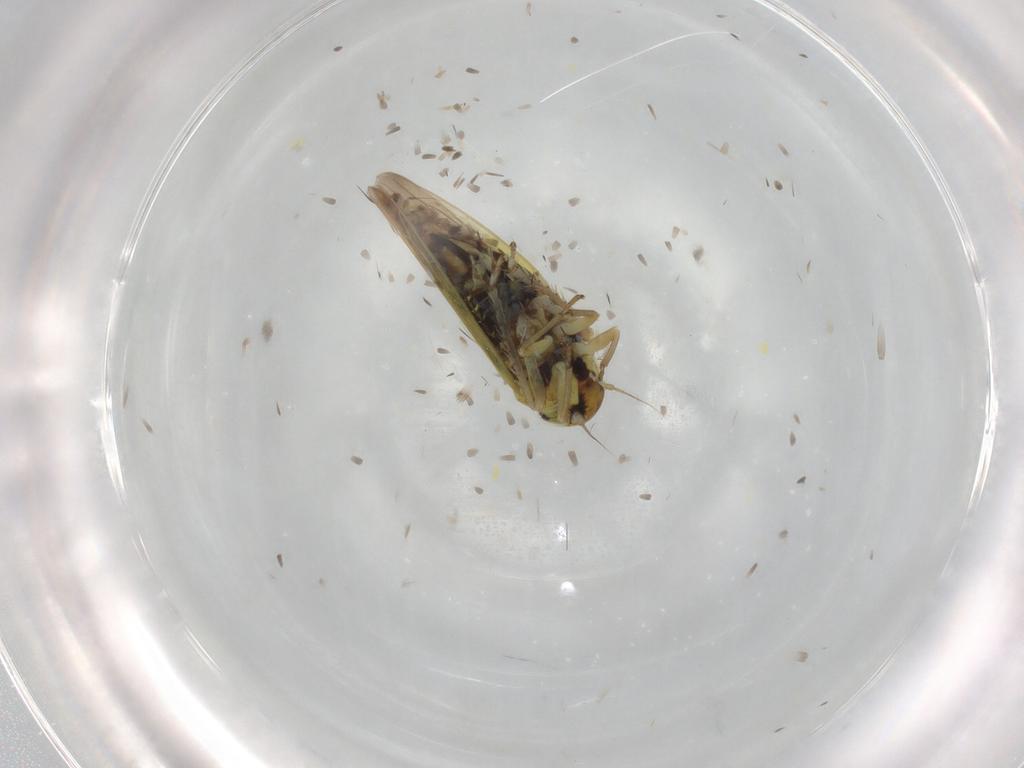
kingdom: Animalia
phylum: Arthropoda
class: Insecta
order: Hemiptera
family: Cicadellidae
